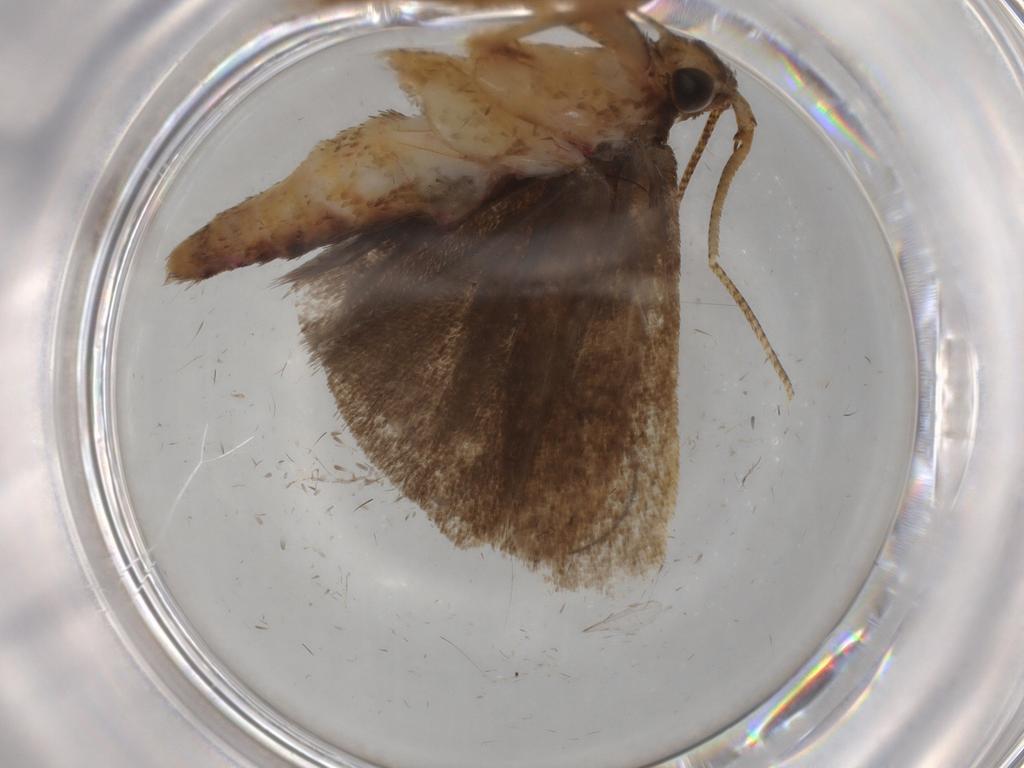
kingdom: Animalia
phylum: Arthropoda
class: Insecta
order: Lepidoptera
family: Autostichidae
